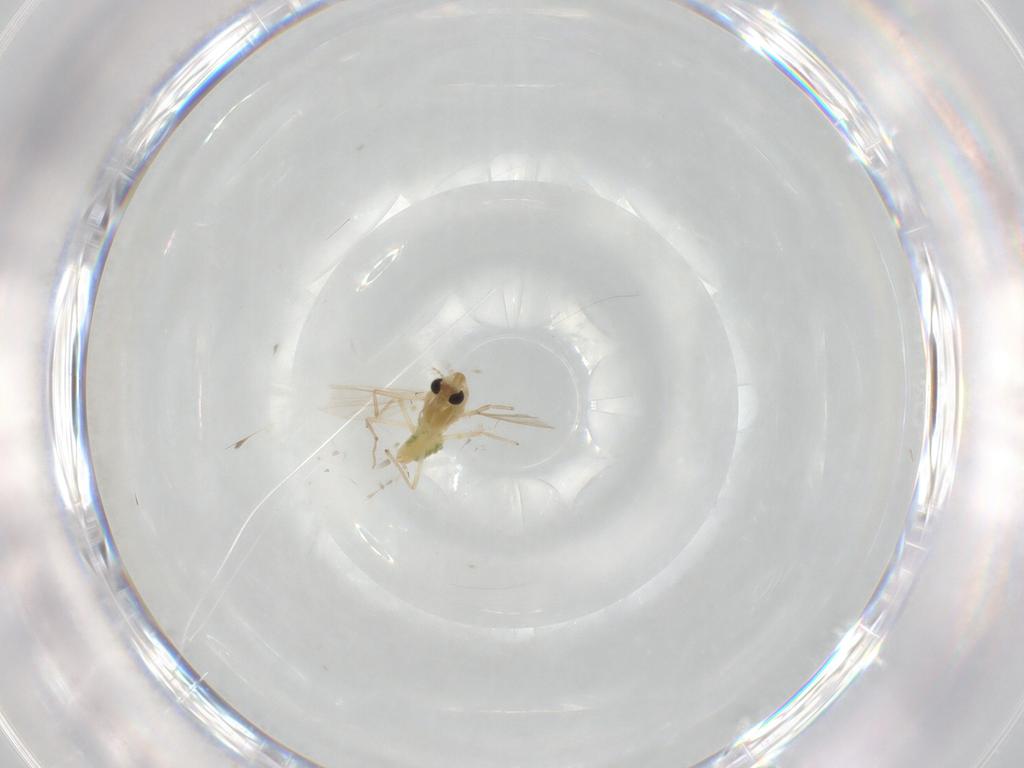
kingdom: Animalia
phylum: Arthropoda
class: Insecta
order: Diptera
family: Chironomidae
